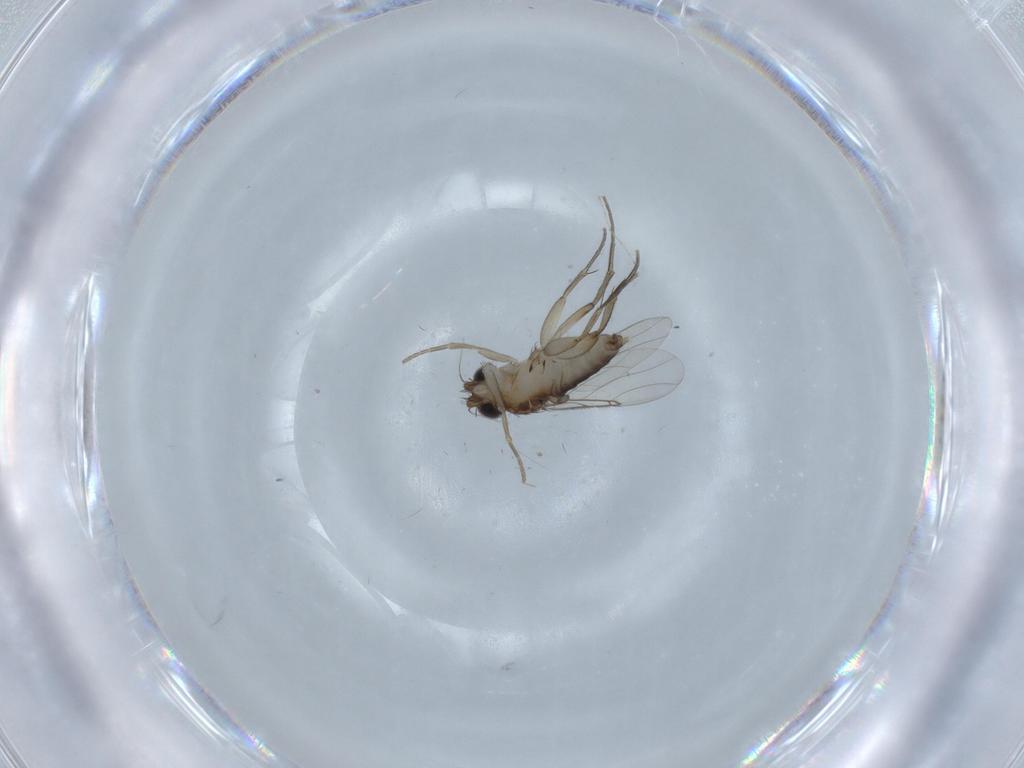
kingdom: Animalia
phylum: Arthropoda
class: Insecta
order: Diptera
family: Phoridae
